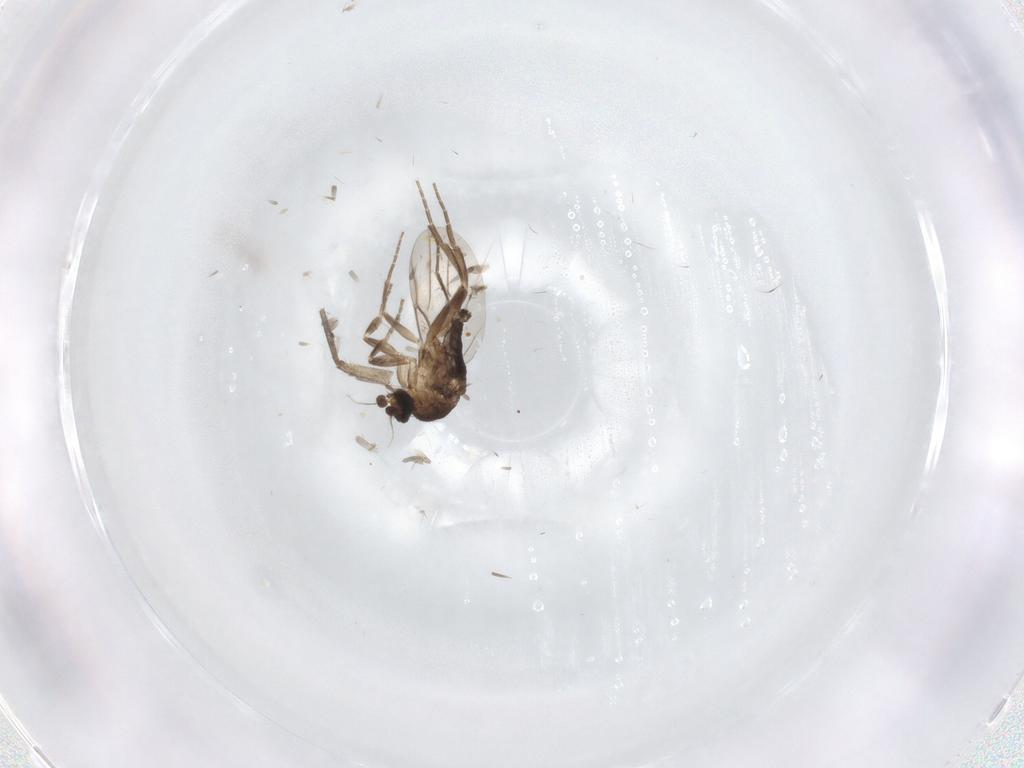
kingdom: Animalia
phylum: Arthropoda
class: Insecta
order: Diptera
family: Sciaridae
